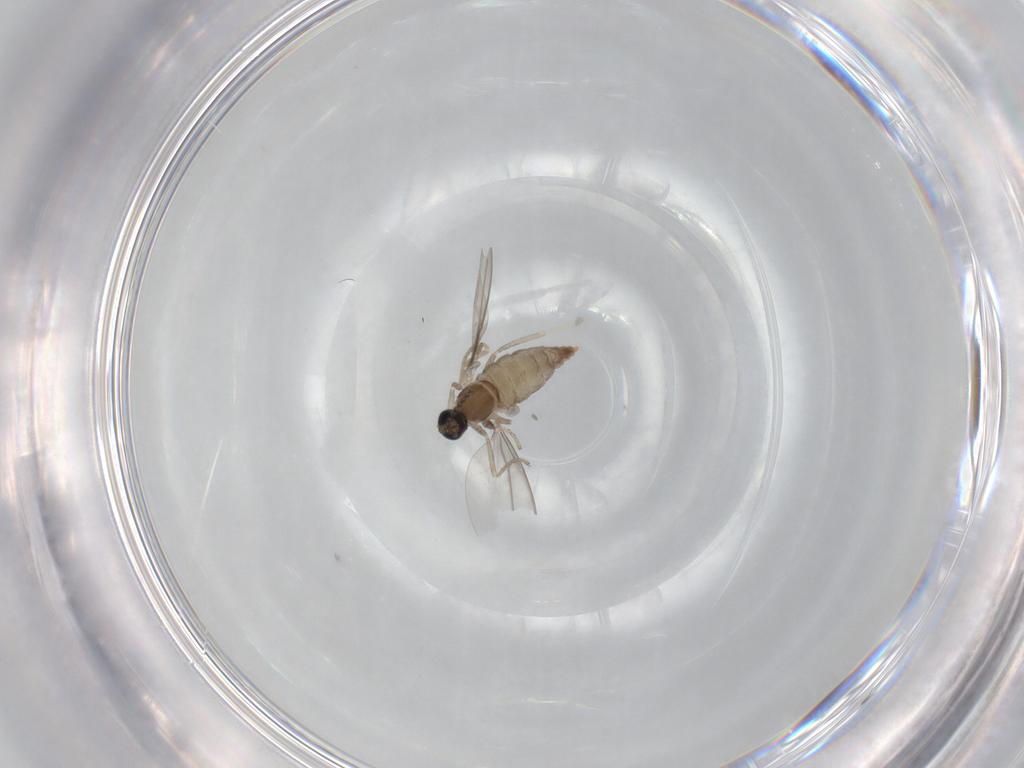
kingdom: Animalia
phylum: Arthropoda
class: Insecta
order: Diptera
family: Cecidomyiidae
